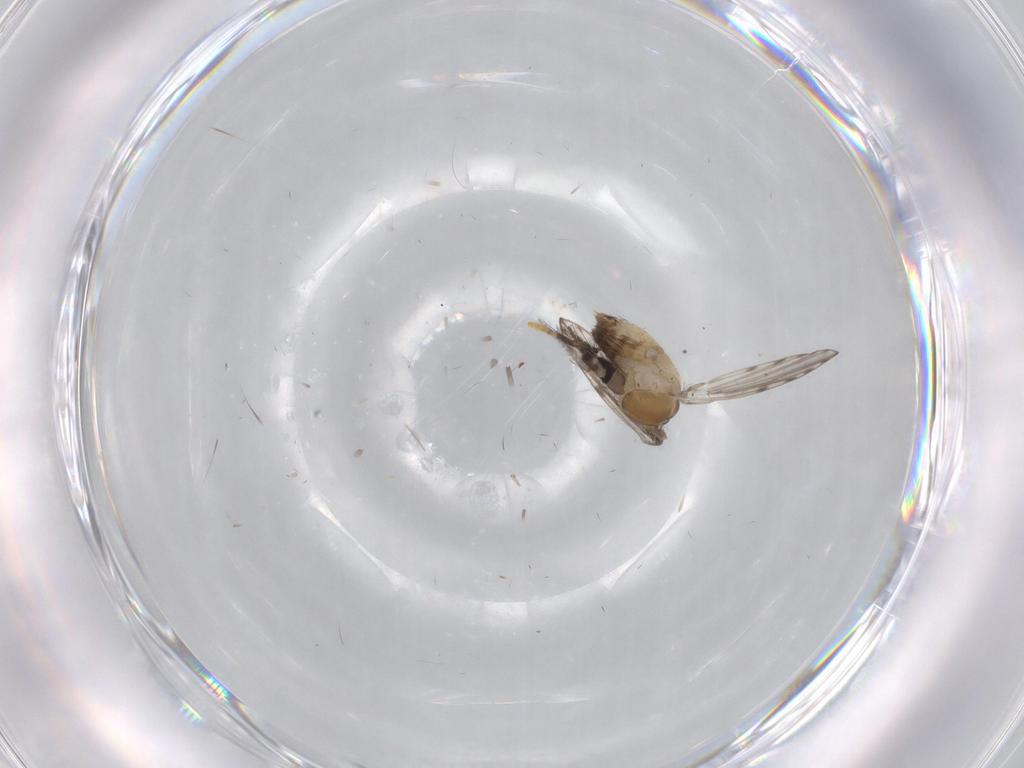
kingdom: Animalia
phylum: Arthropoda
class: Insecta
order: Diptera
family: Dolichopodidae
